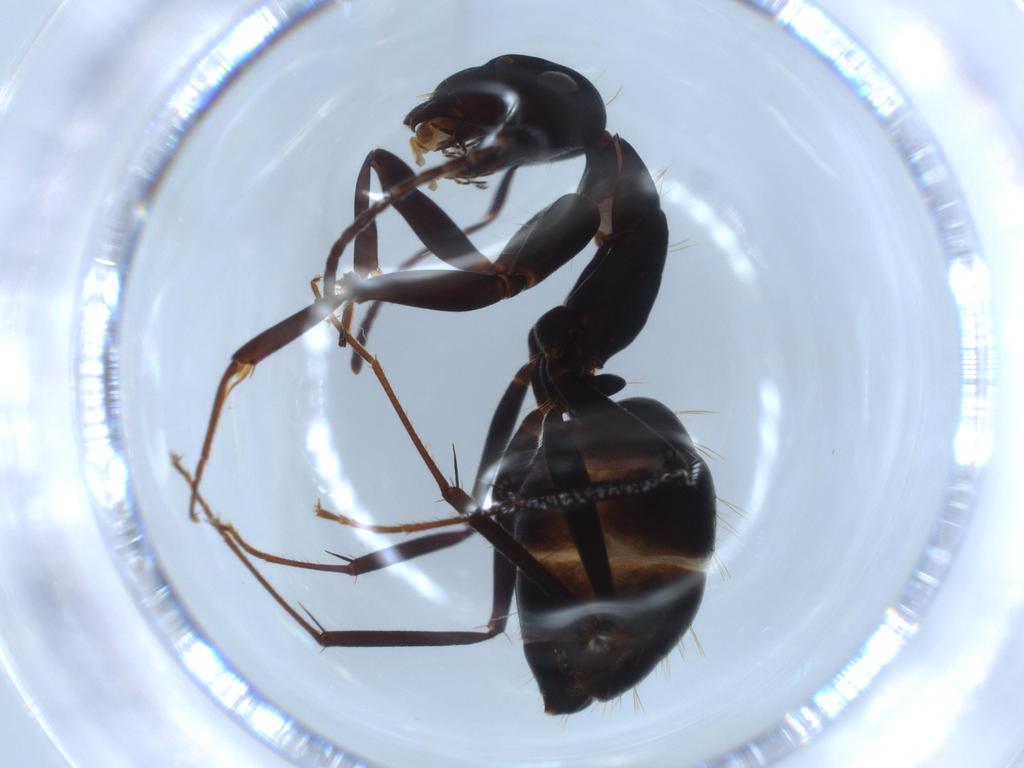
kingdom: Animalia
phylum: Arthropoda
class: Insecta
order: Hymenoptera
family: Formicidae
